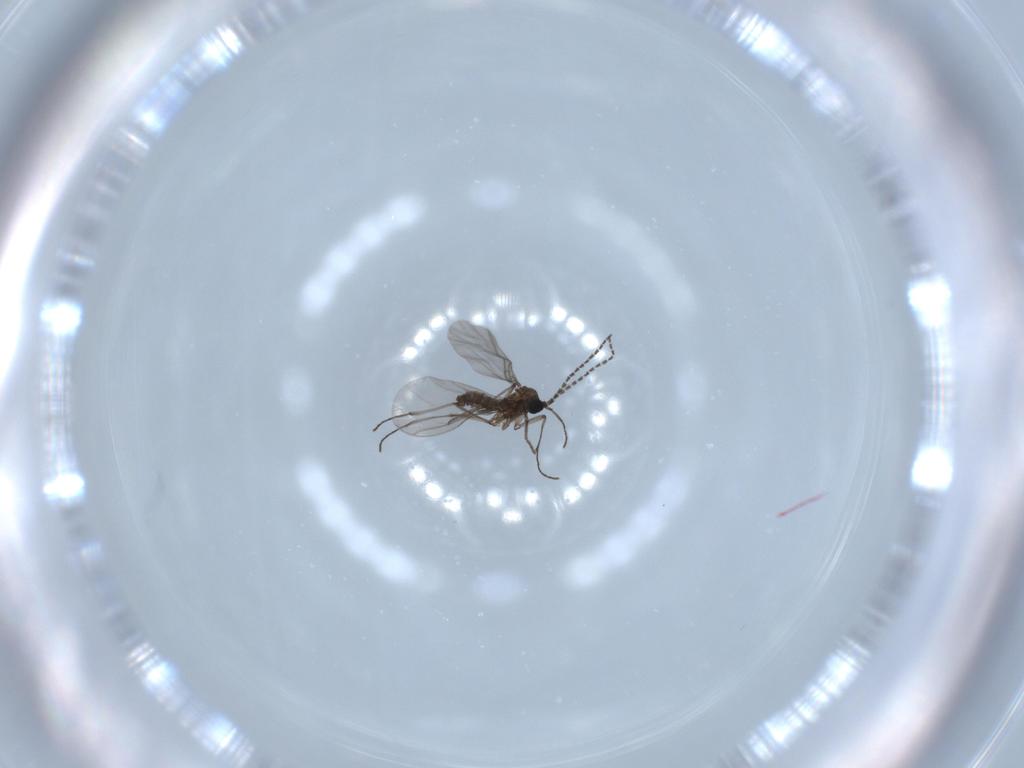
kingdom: Animalia
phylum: Arthropoda
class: Insecta
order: Diptera
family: Sciaridae
